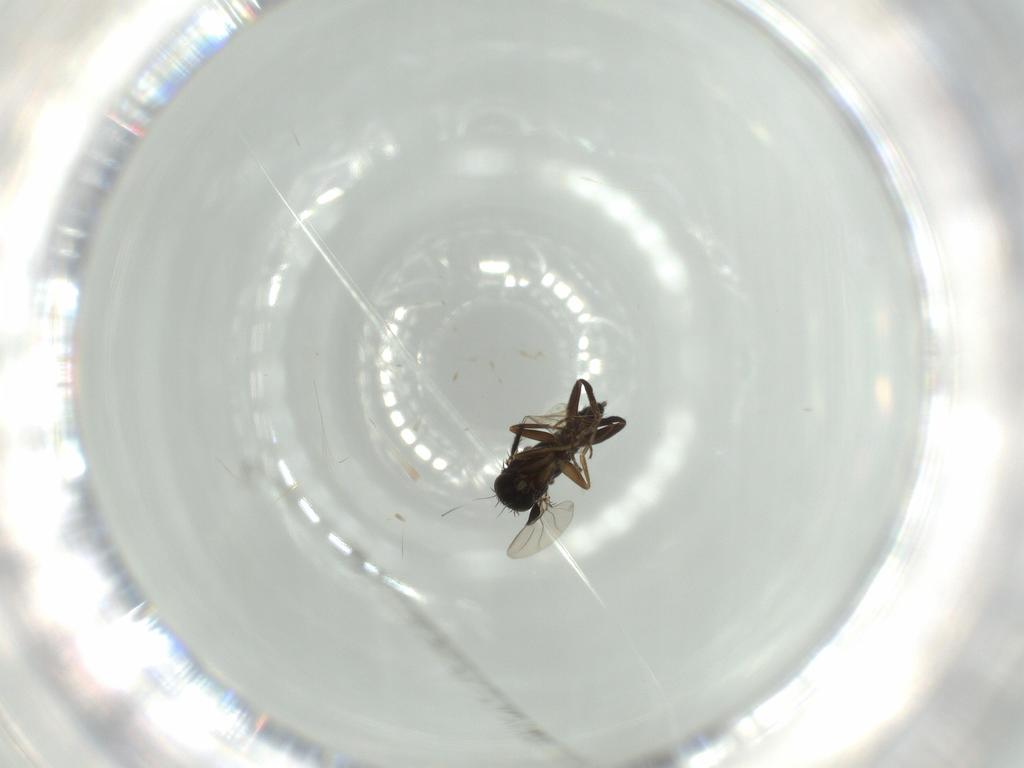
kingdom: Animalia
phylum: Arthropoda
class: Insecta
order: Diptera
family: Phoridae
